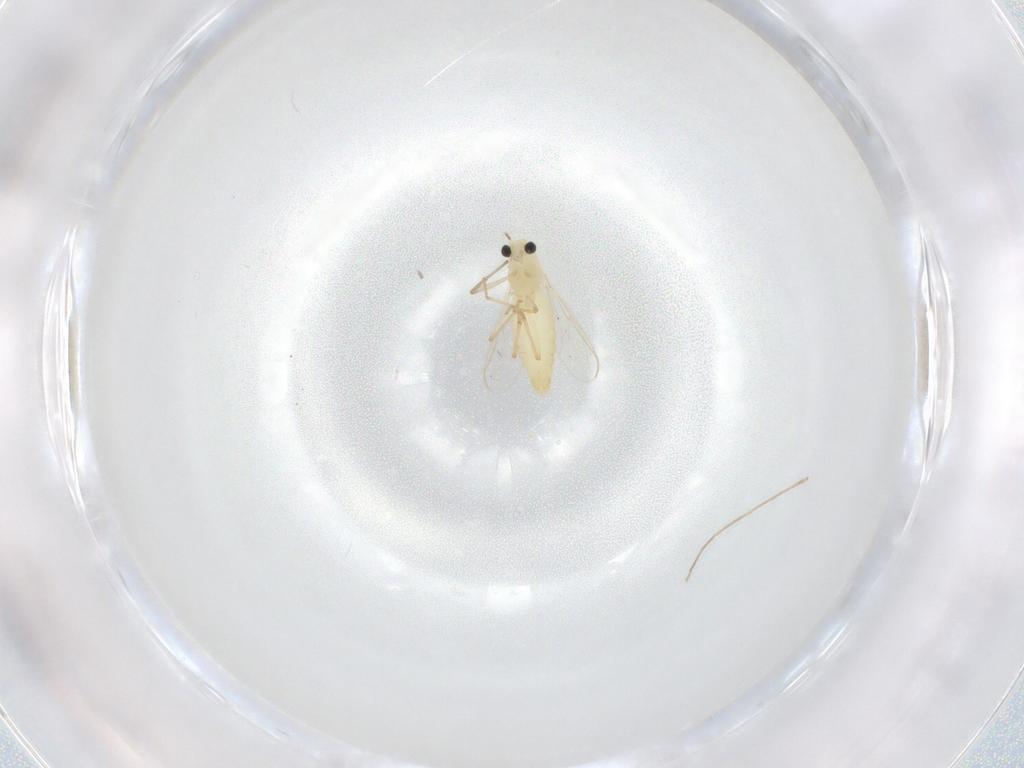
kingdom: Animalia
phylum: Arthropoda
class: Insecta
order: Diptera
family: Chironomidae
